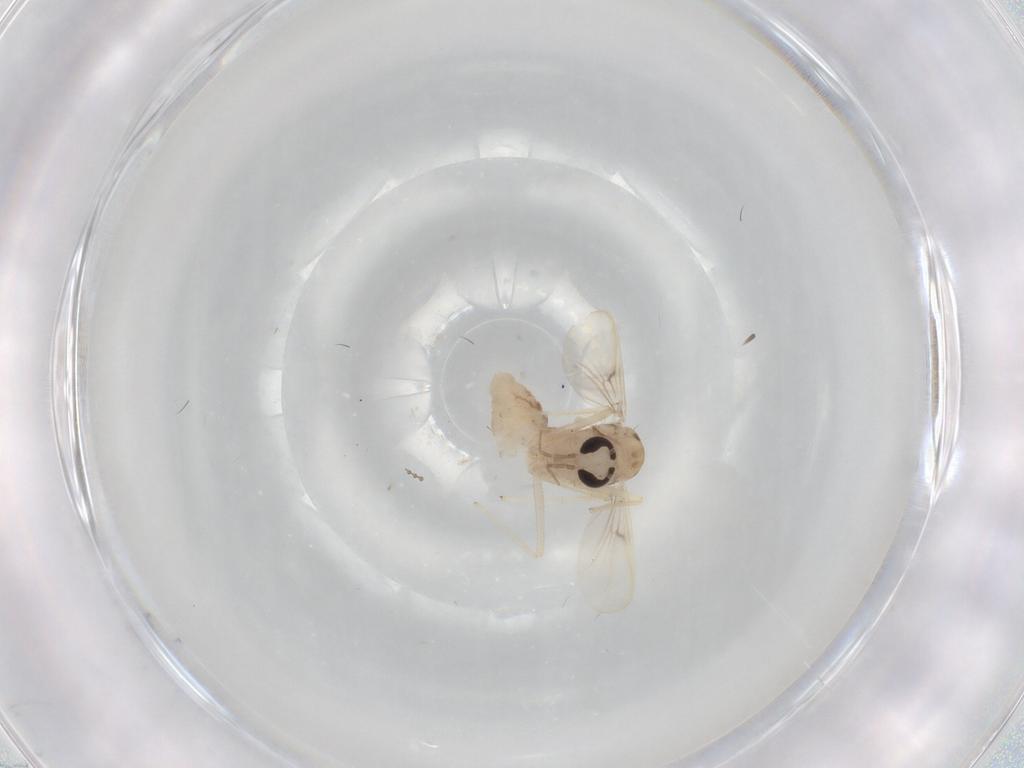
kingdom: Animalia
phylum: Arthropoda
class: Insecta
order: Diptera
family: Chironomidae
